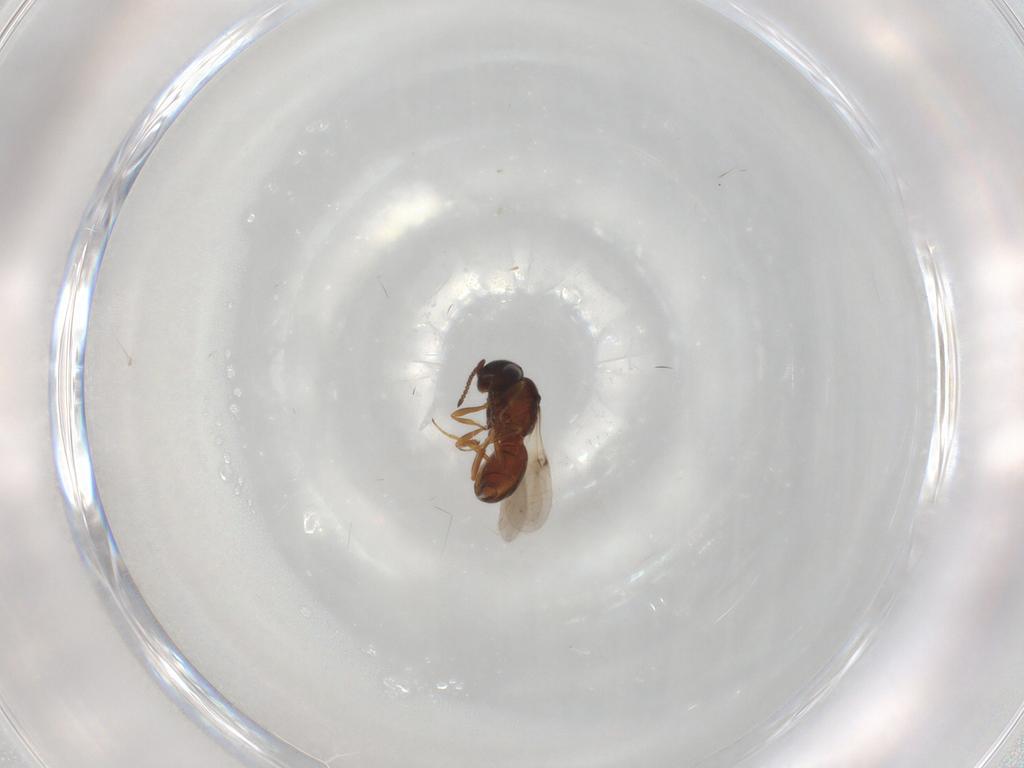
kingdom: Animalia
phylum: Arthropoda
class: Insecta
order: Hymenoptera
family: Scelionidae
